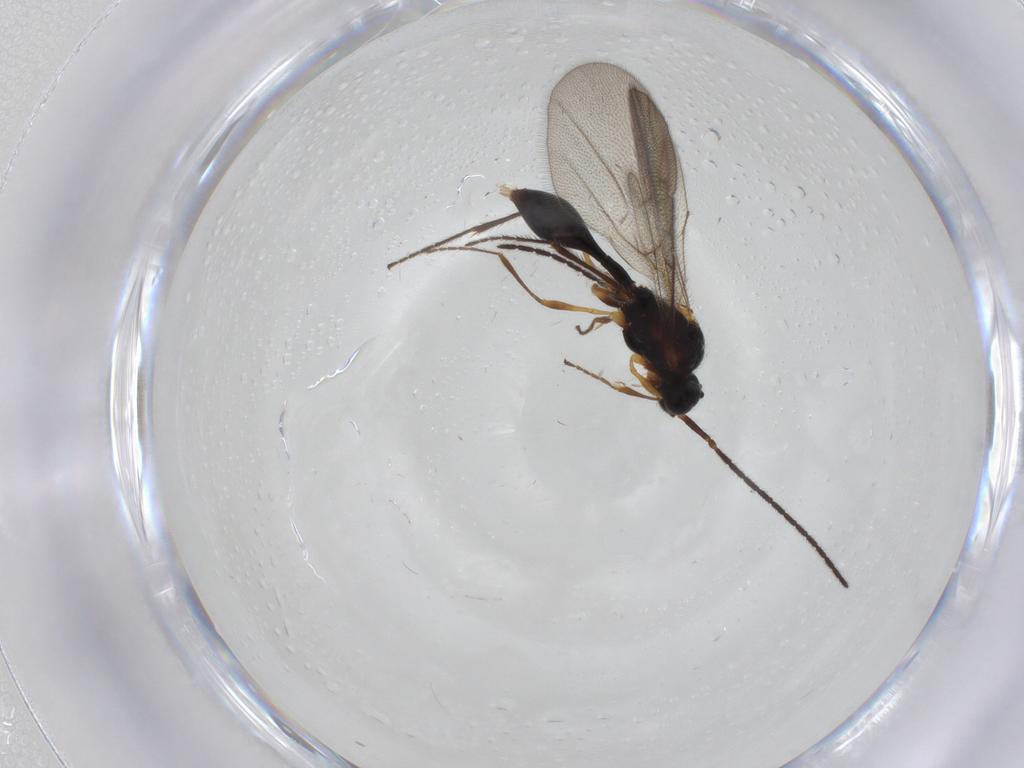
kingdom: Animalia
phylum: Arthropoda
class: Insecta
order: Hymenoptera
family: Diapriidae
